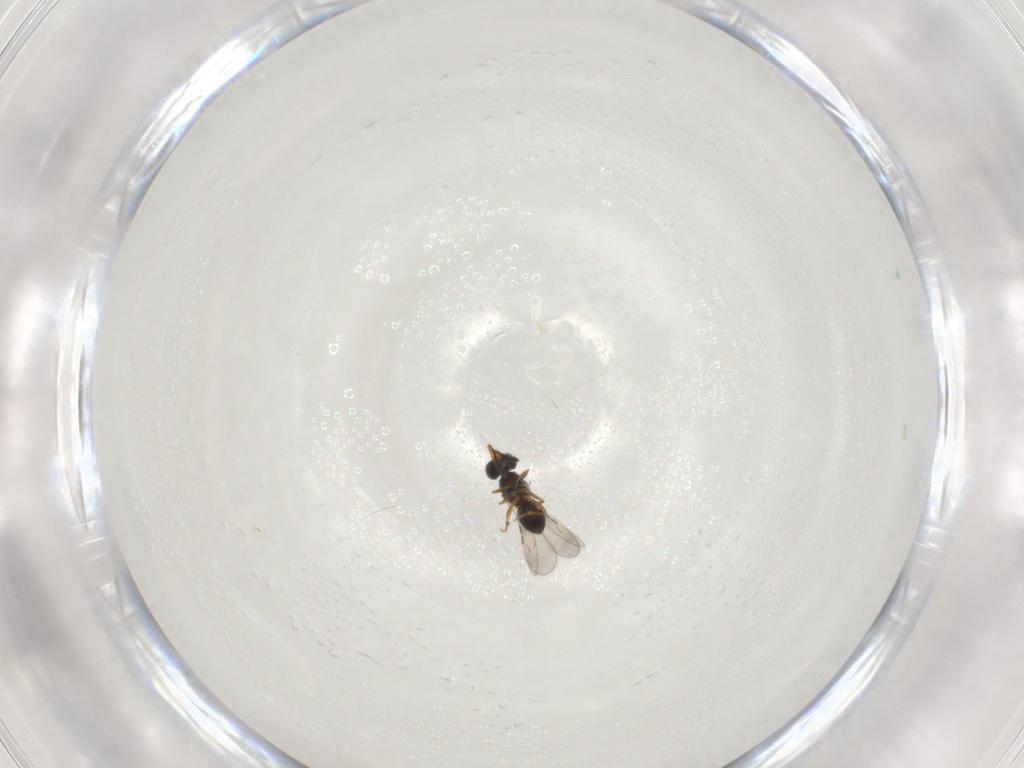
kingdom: Animalia
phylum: Arthropoda
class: Insecta
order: Hymenoptera
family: Ceraphronidae
